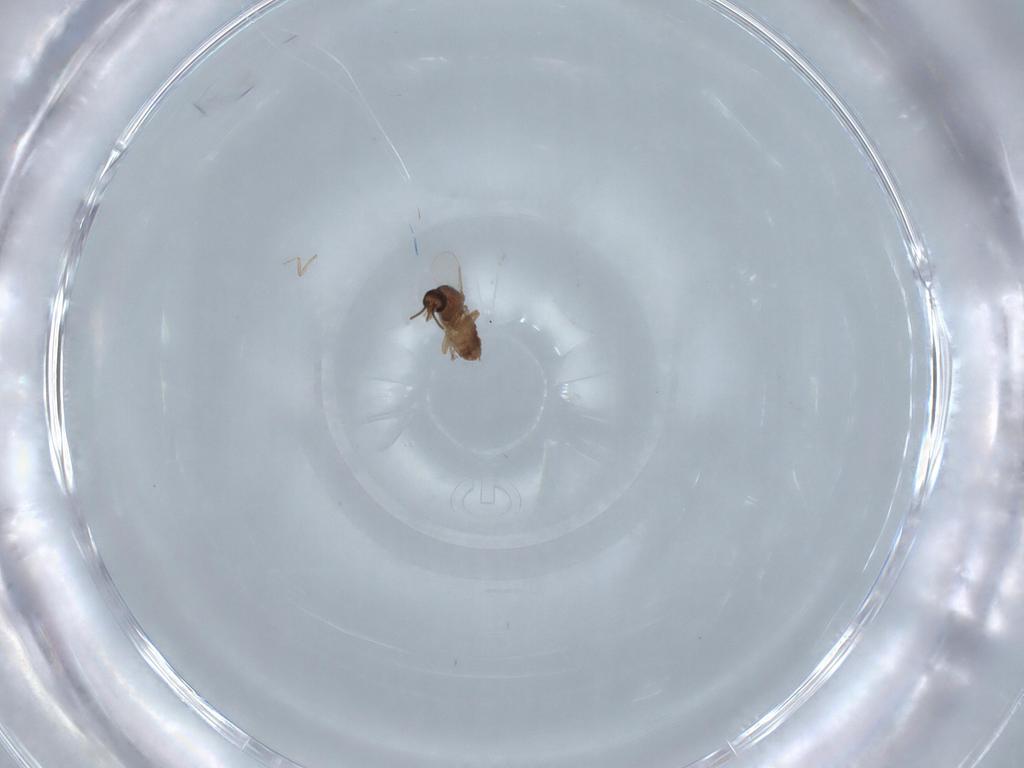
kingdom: Animalia
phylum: Arthropoda
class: Insecta
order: Diptera
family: Ceratopogonidae
